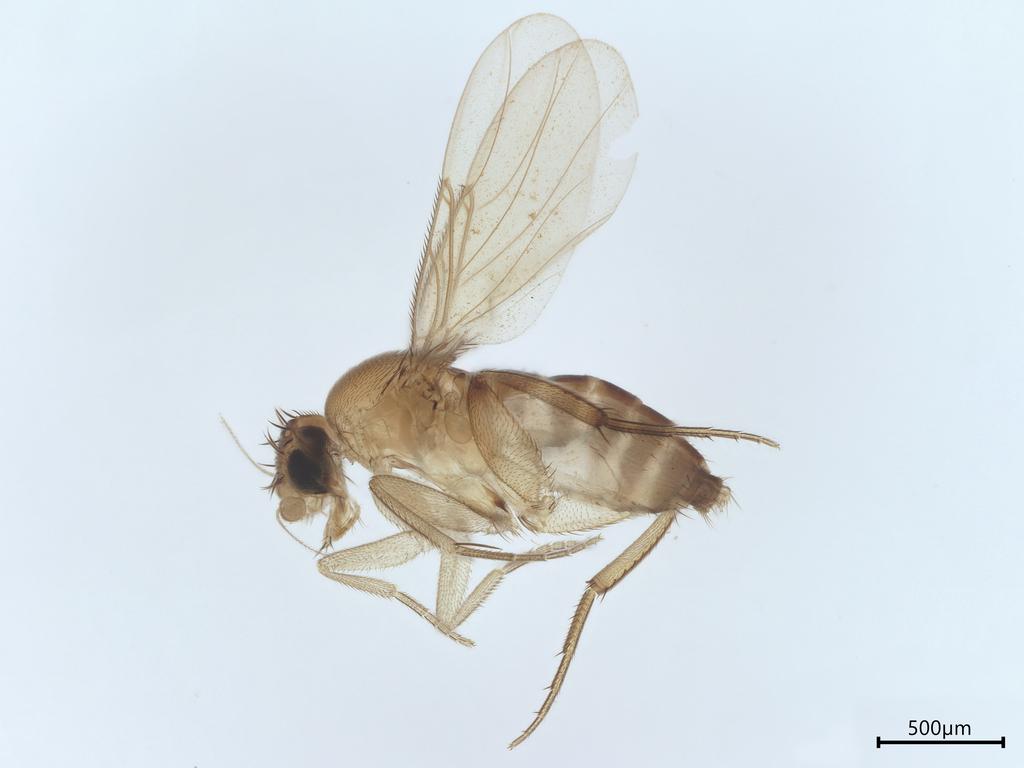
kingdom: Animalia
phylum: Arthropoda
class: Insecta
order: Diptera
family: Phoridae
